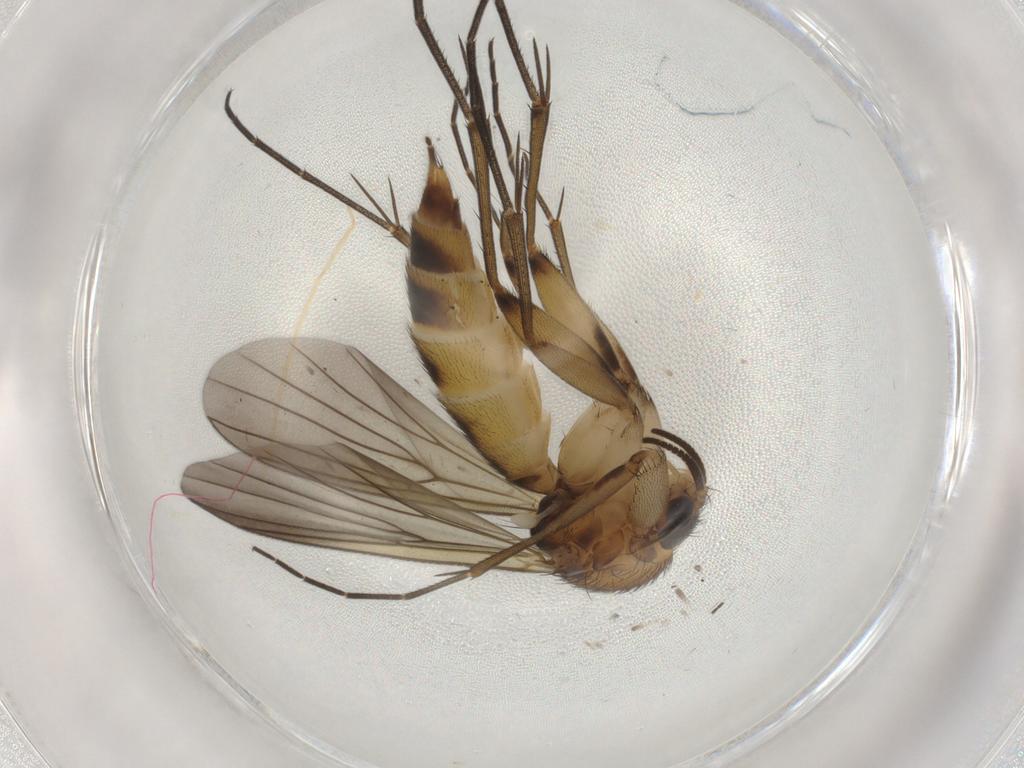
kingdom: Animalia
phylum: Arthropoda
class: Insecta
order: Diptera
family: Mycetophilidae
